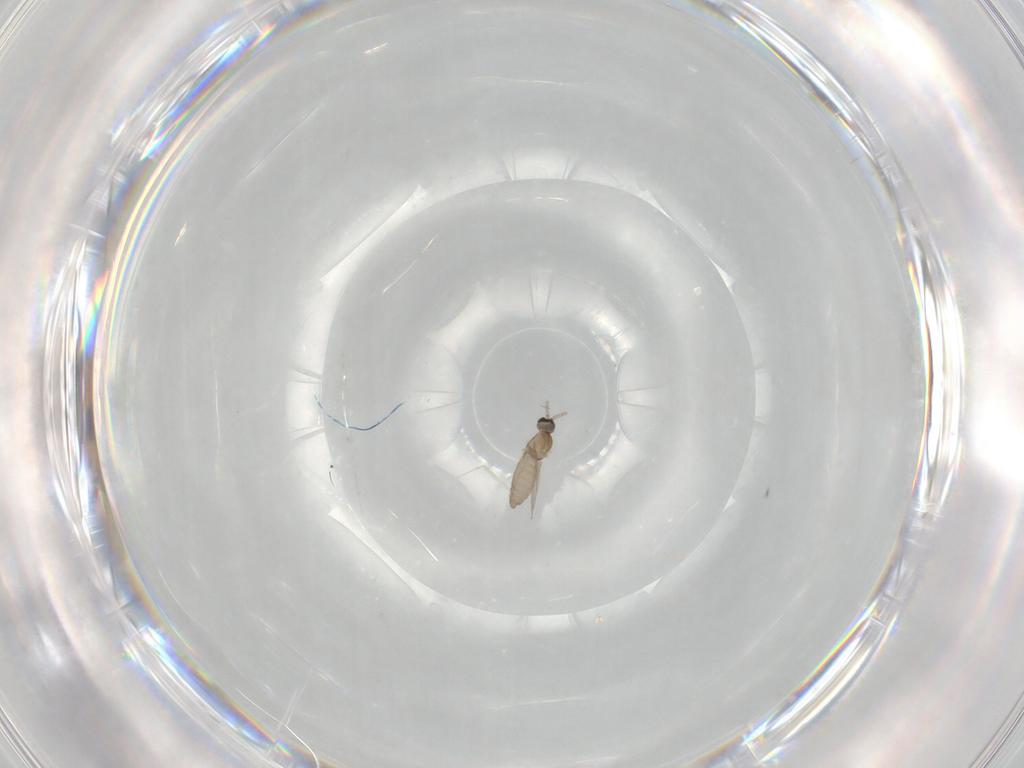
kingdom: Animalia
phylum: Arthropoda
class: Insecta
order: Diptera
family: Cecidomyiidae
